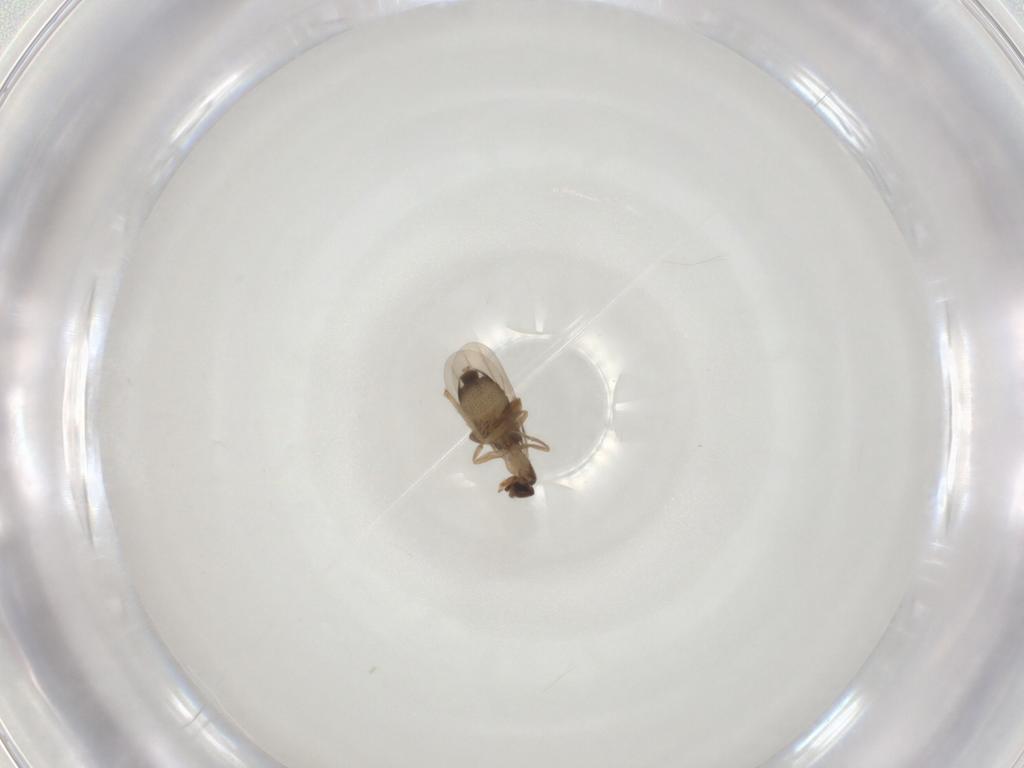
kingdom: Animalia
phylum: Arthropoda
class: Insecta
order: Diptera
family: Phoridae
